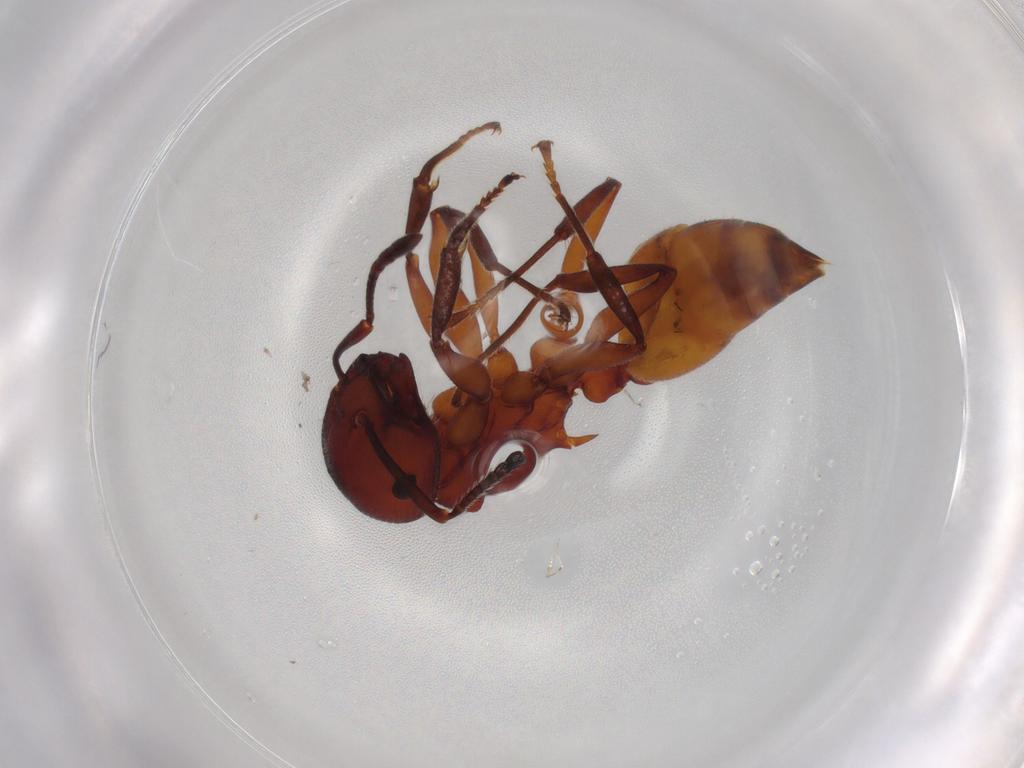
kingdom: Animalia
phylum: Arthropoda
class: Insecta
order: Hymenoptera
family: Formicidae
